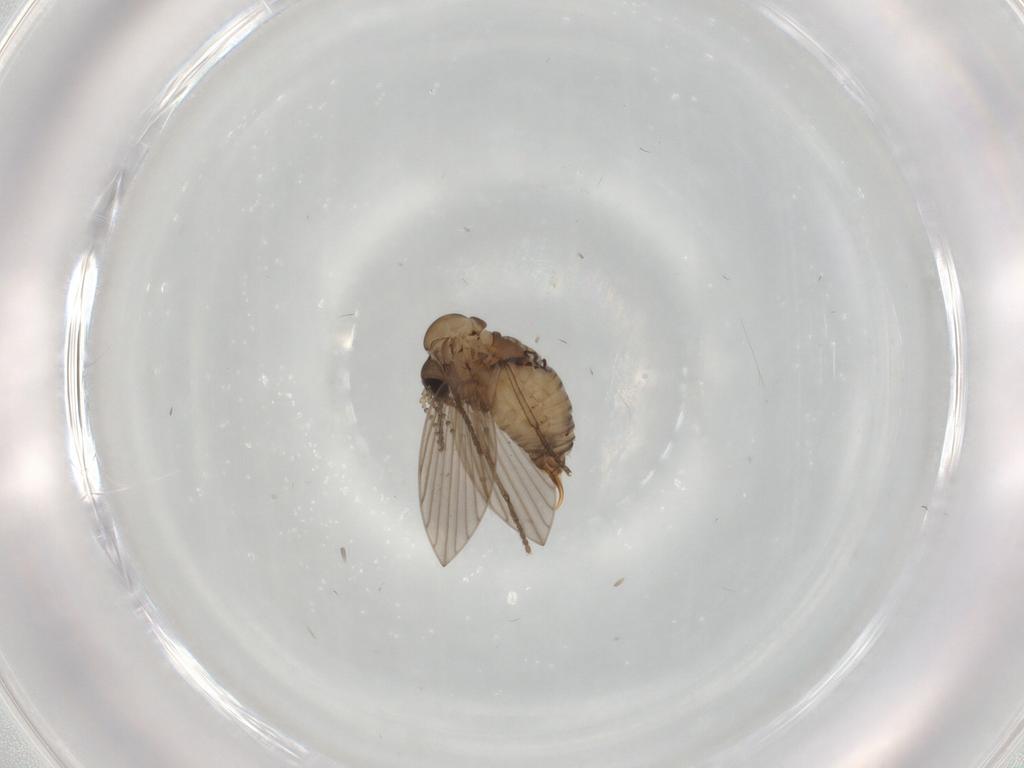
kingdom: Animalia
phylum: Arthropoda
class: Insecta
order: Diptera
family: Psychodidae
